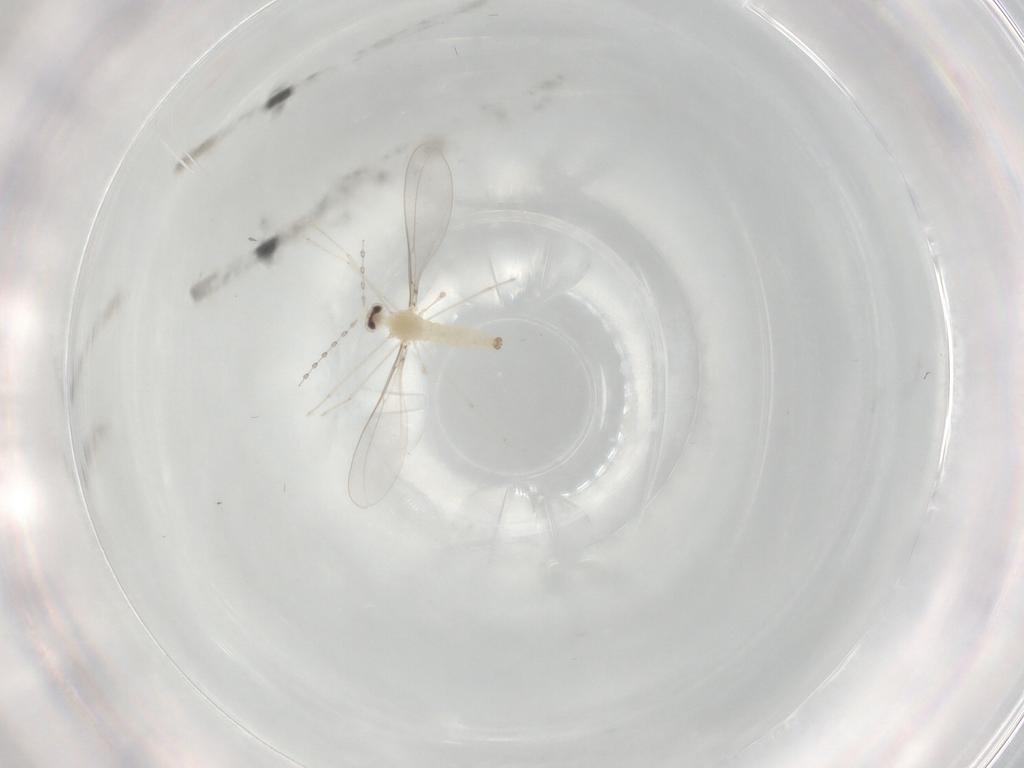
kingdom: Animalia
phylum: Arthropoda
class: Insecta
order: Diptera
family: Cecidomyiidae
